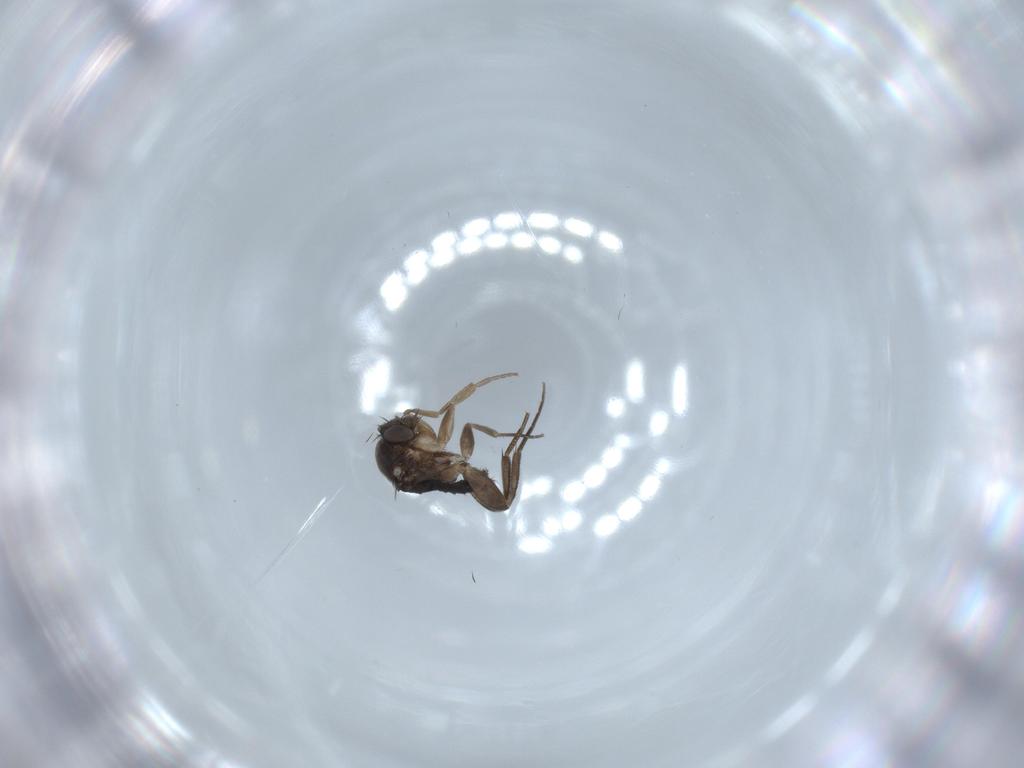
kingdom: Animalia
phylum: Arthropoda
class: Insecta
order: Diptera
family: Phoridae
